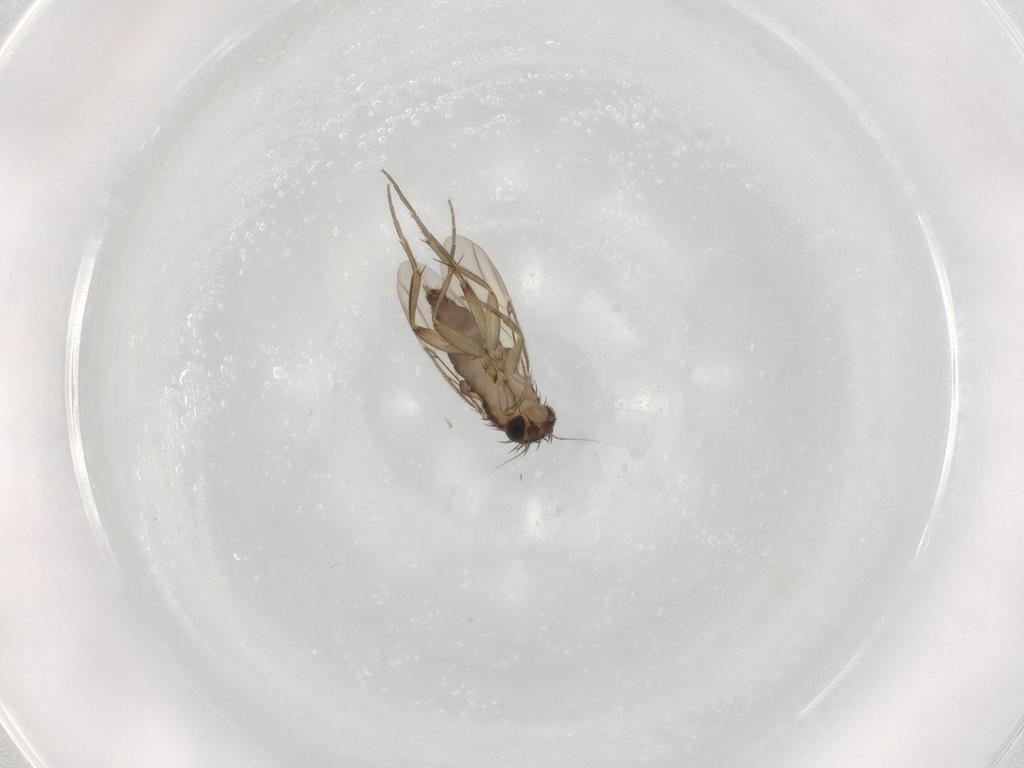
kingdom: Animalia
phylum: Arthropoda
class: Insecta
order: Diptera
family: Phoridae
